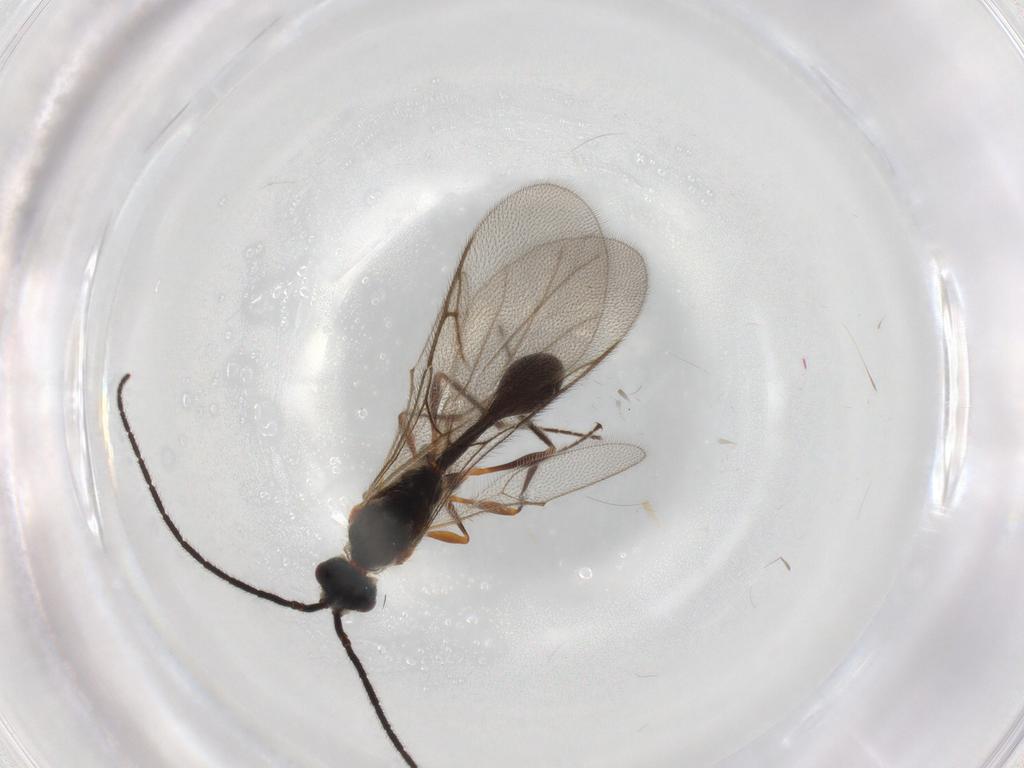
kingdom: Animalia
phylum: Arthropoda
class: Insecta
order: Hymenoptera
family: Diapriidae
